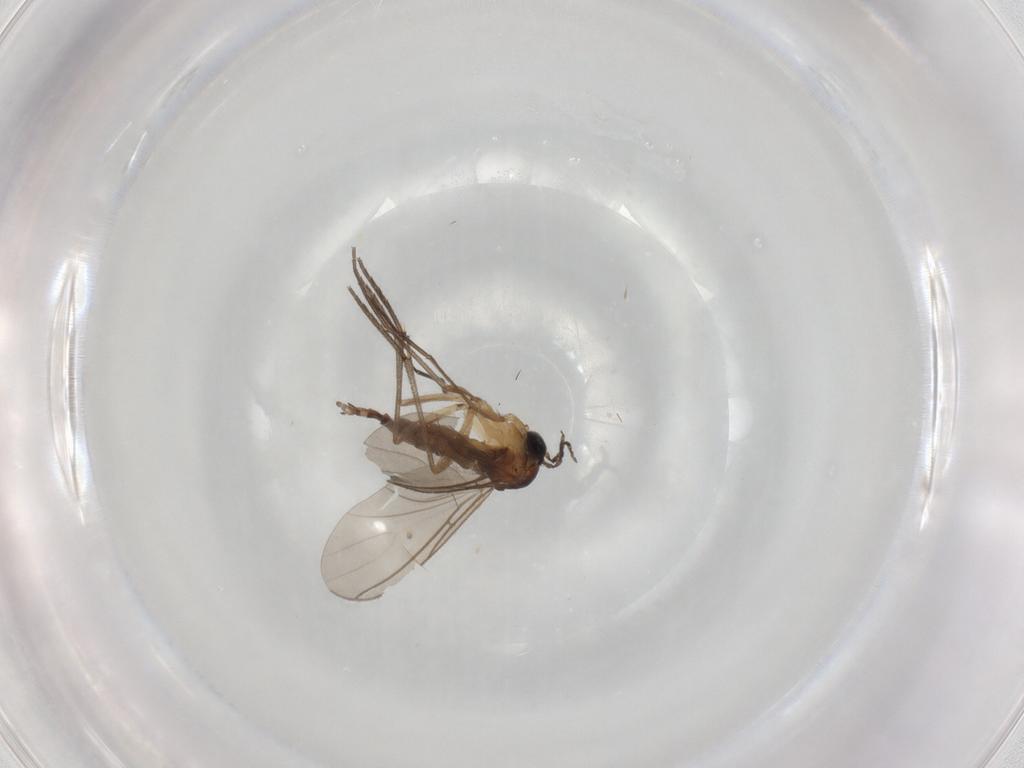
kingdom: Animalia
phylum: Arthropoda
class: Insecta
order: Diptera
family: Sciaridae
